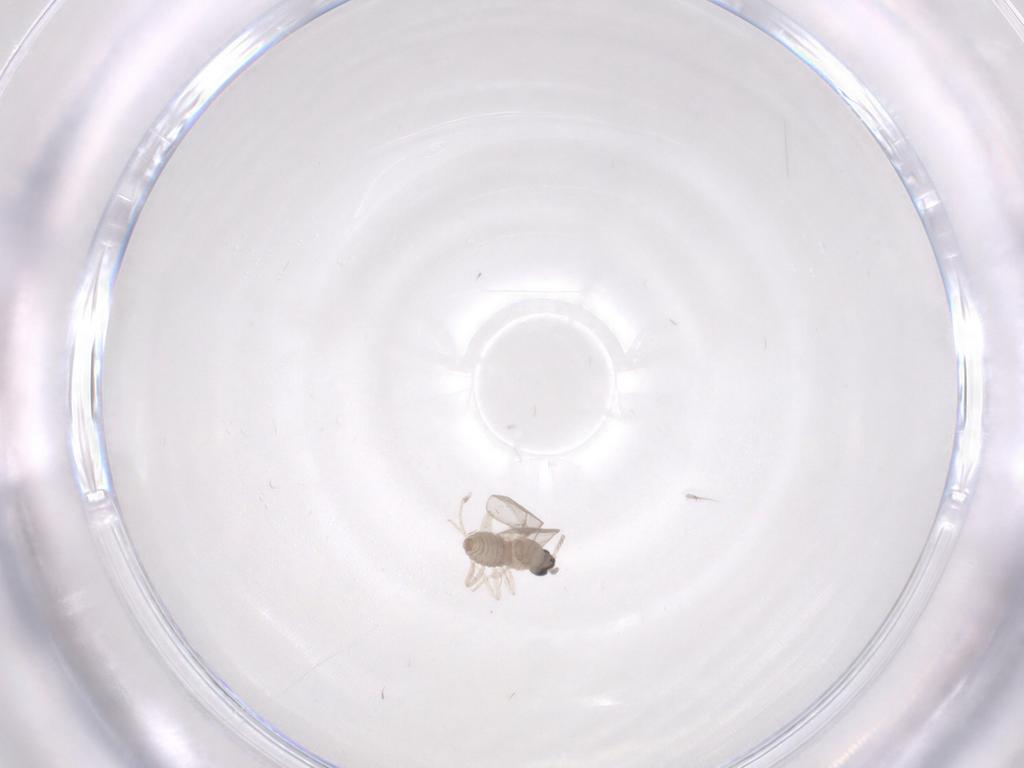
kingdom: Animalia
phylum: Arthropoda
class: Insecta
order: Diptera
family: Cecidomyiidae
